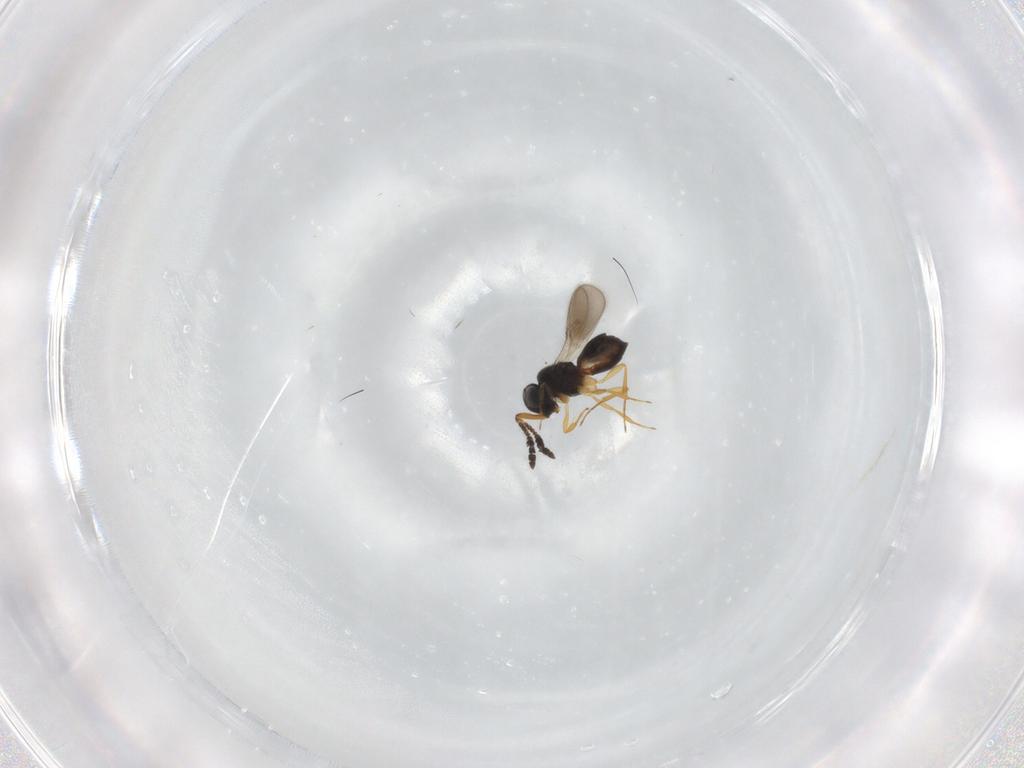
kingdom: Animalia
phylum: Arthropoda
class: Insecta
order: Hymenoptera
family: Scelionidae
